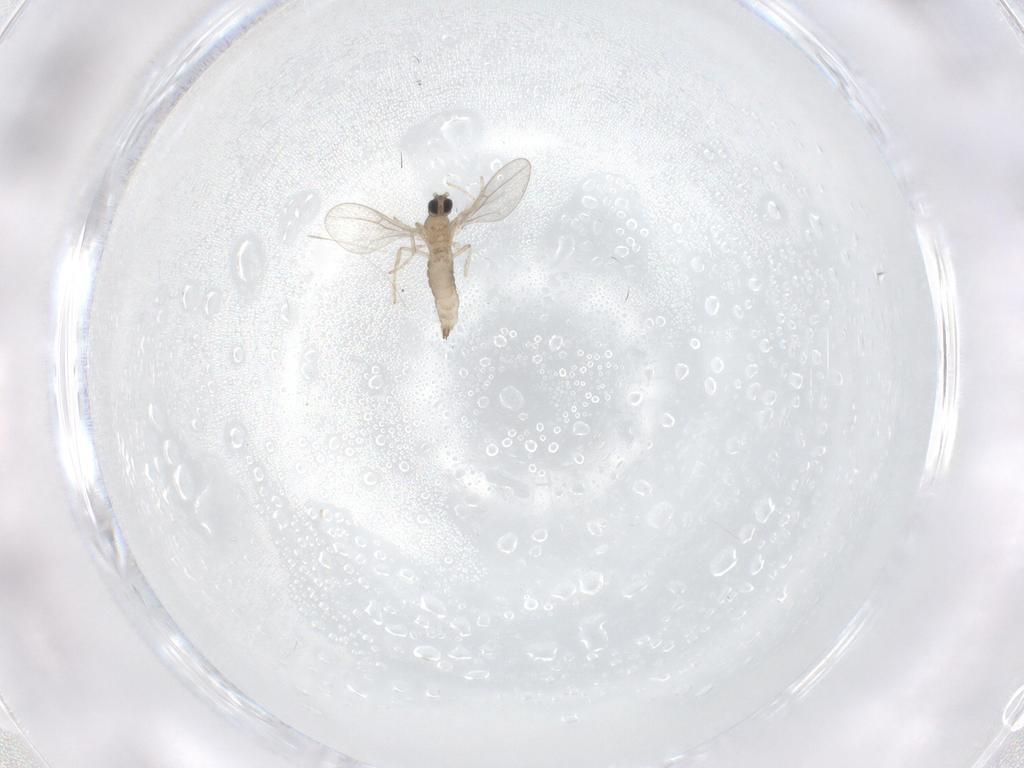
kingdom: Animalia
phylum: Arthropoda
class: Insecta
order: Diptera
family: Cecidomyiidae
